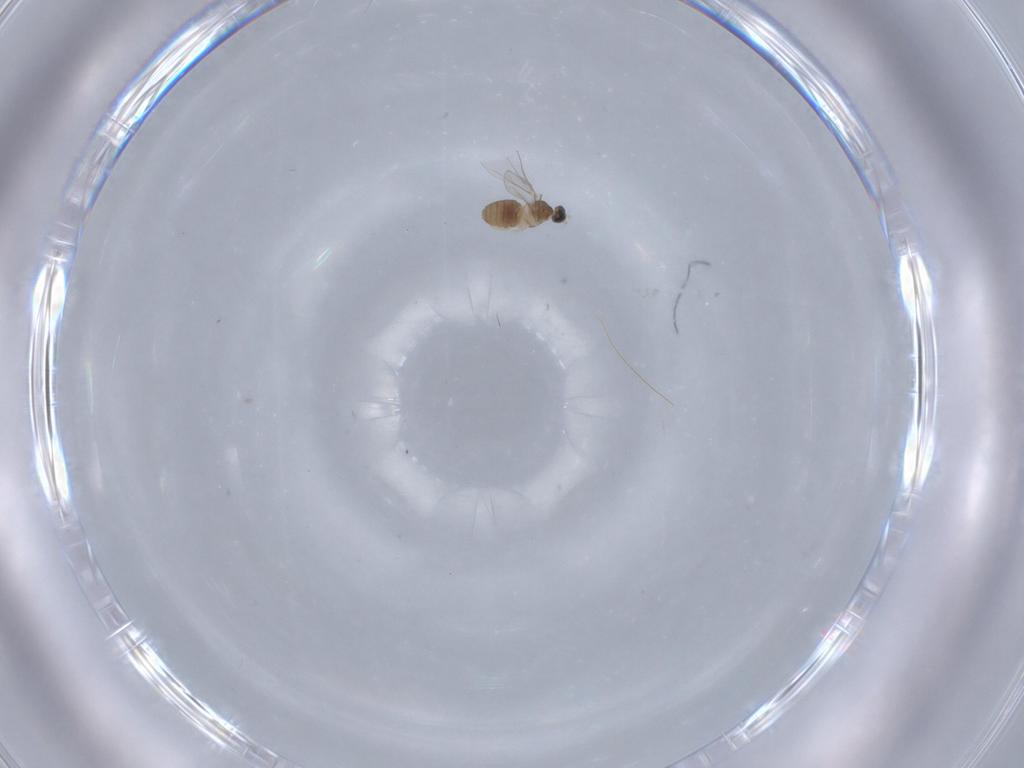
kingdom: Animalia
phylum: Arthropoda
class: Insecta
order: Diptera
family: Cecidomyiidae
